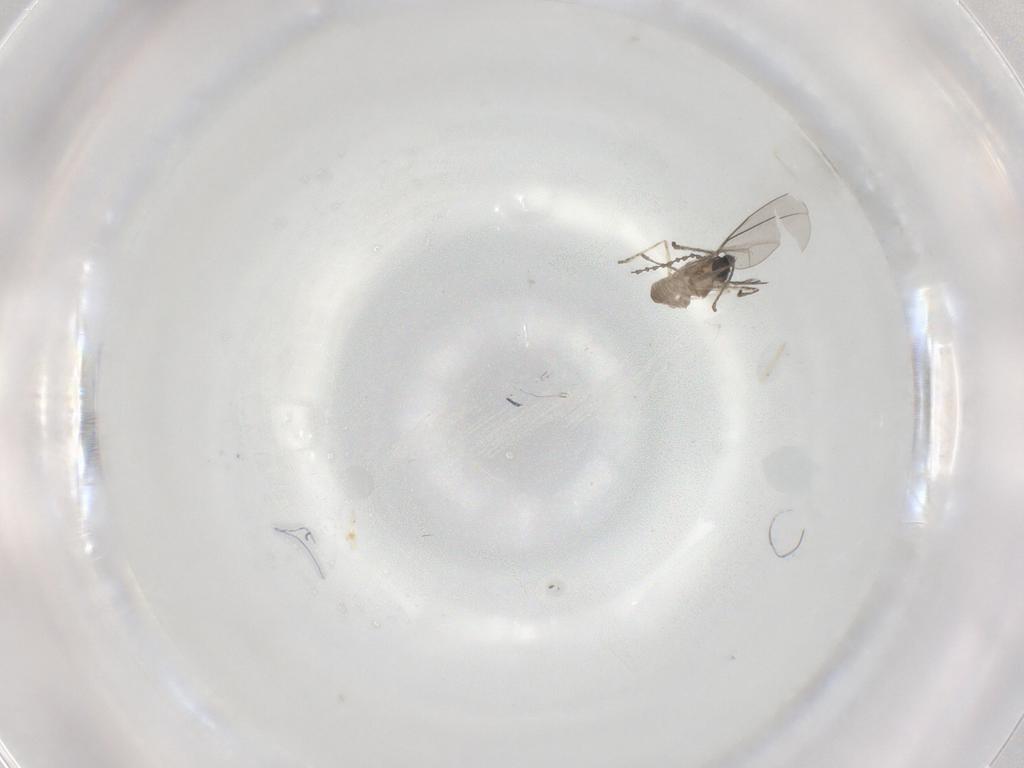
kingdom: Animalia
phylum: Arthropoda
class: Insecta
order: Diptera
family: Cecidomyiidae
